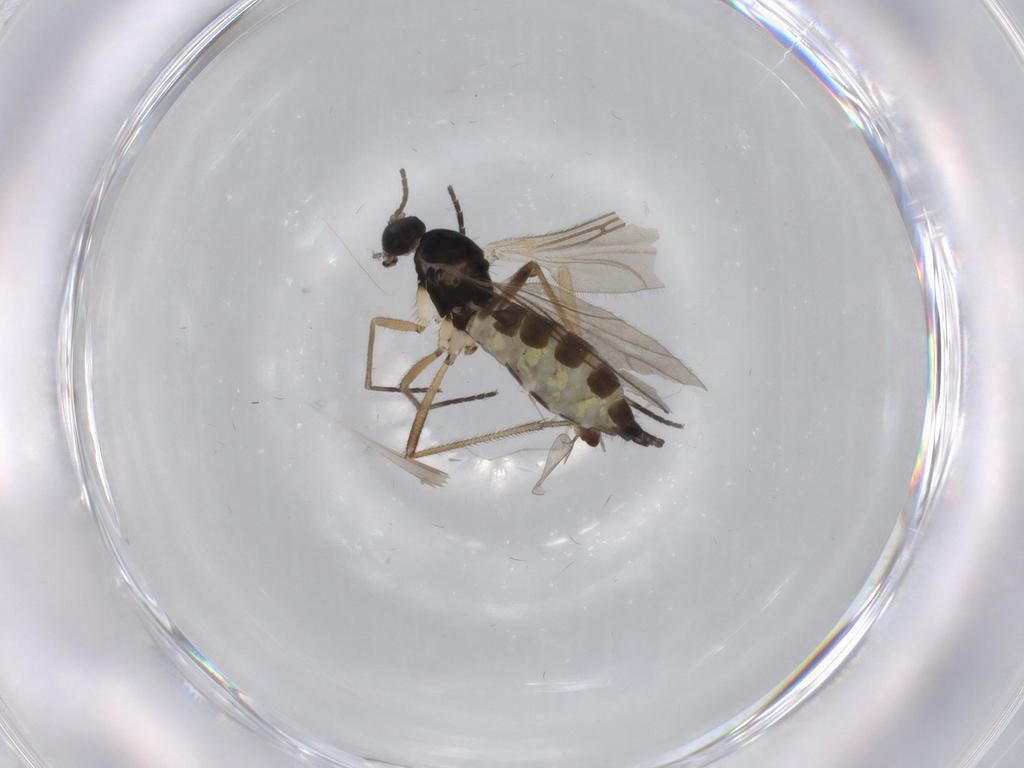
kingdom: Animalia
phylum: Arthropoda
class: Insecta
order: Diptera
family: Sciaridae
